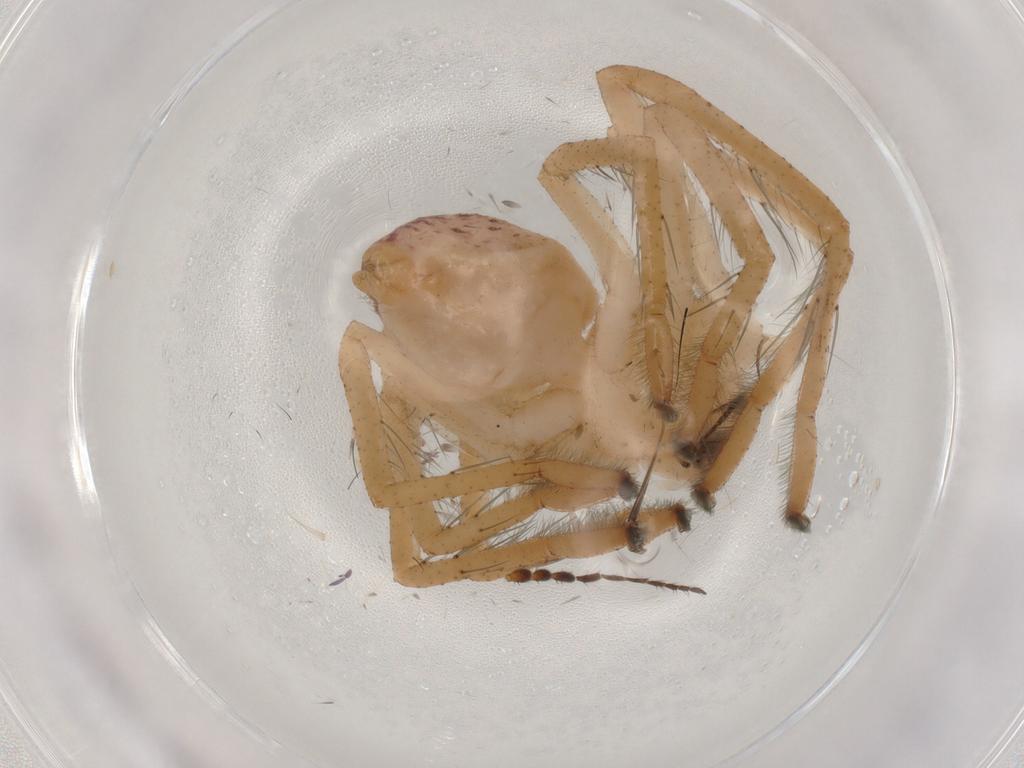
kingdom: Animalia
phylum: Arthropoda
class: Arachnida
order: Araneae
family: Sparassidae
